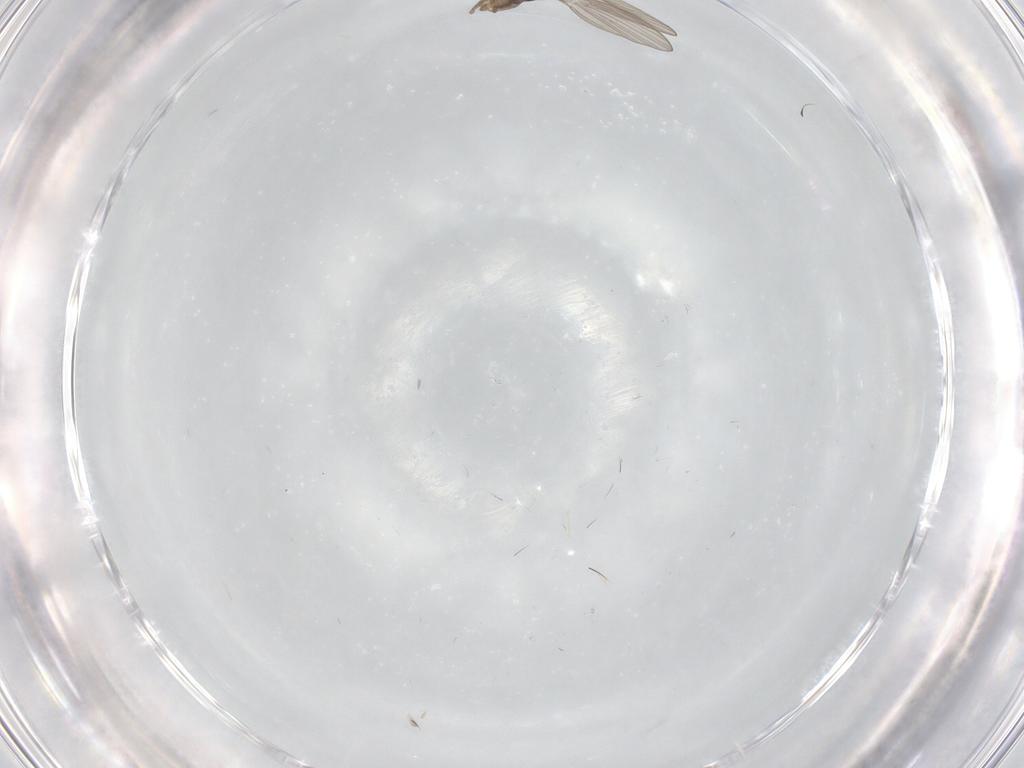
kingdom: Animalia
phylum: Arthropoda
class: Insecta
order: Diptera
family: Psychodidae
